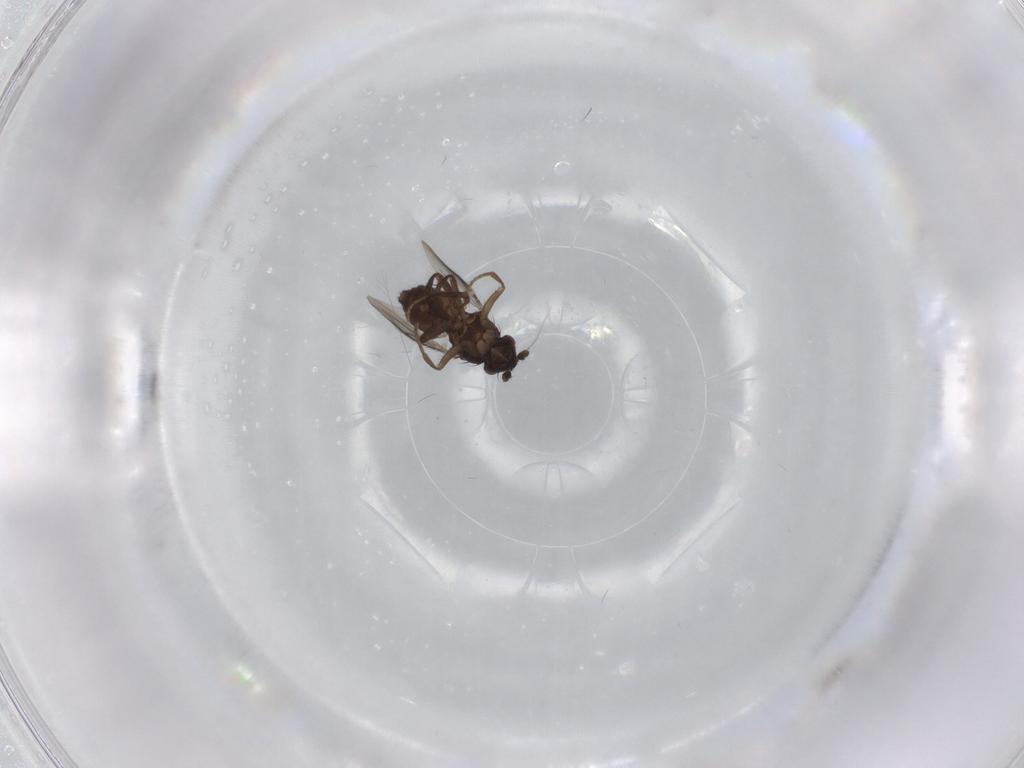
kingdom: Animalia
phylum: Arthropoda
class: Insecta
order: Diptera
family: Sphaeroceridae
